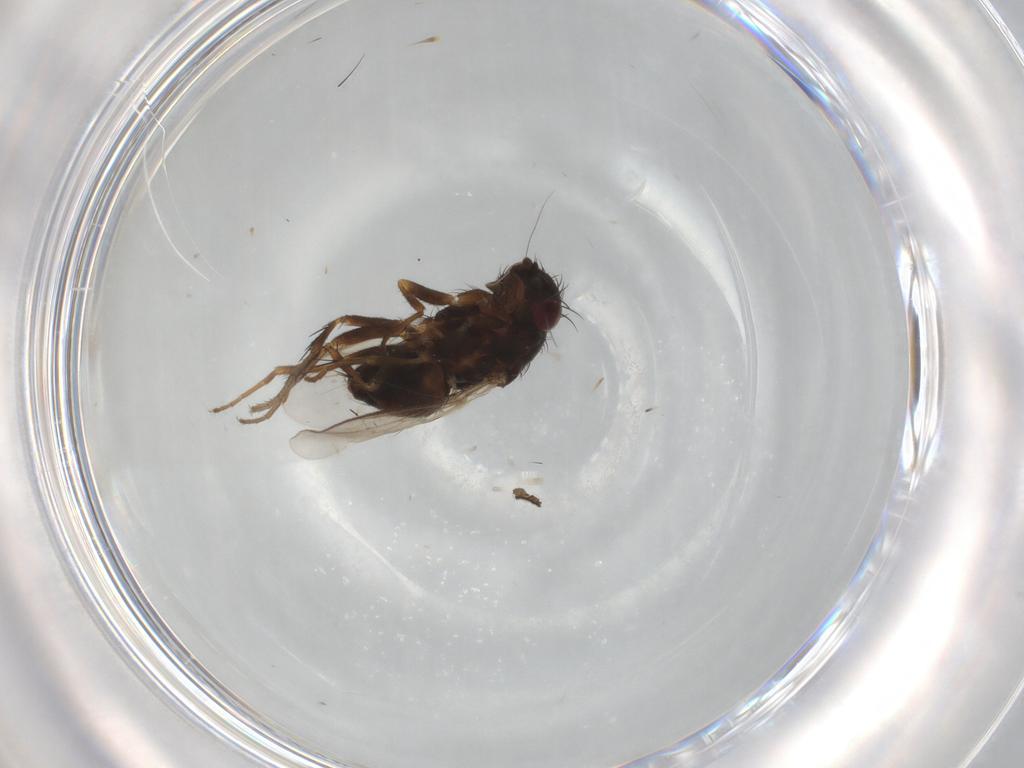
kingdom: Animalia
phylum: Arthropoda
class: Insecta
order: Diptera
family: Sphaeroceridae
